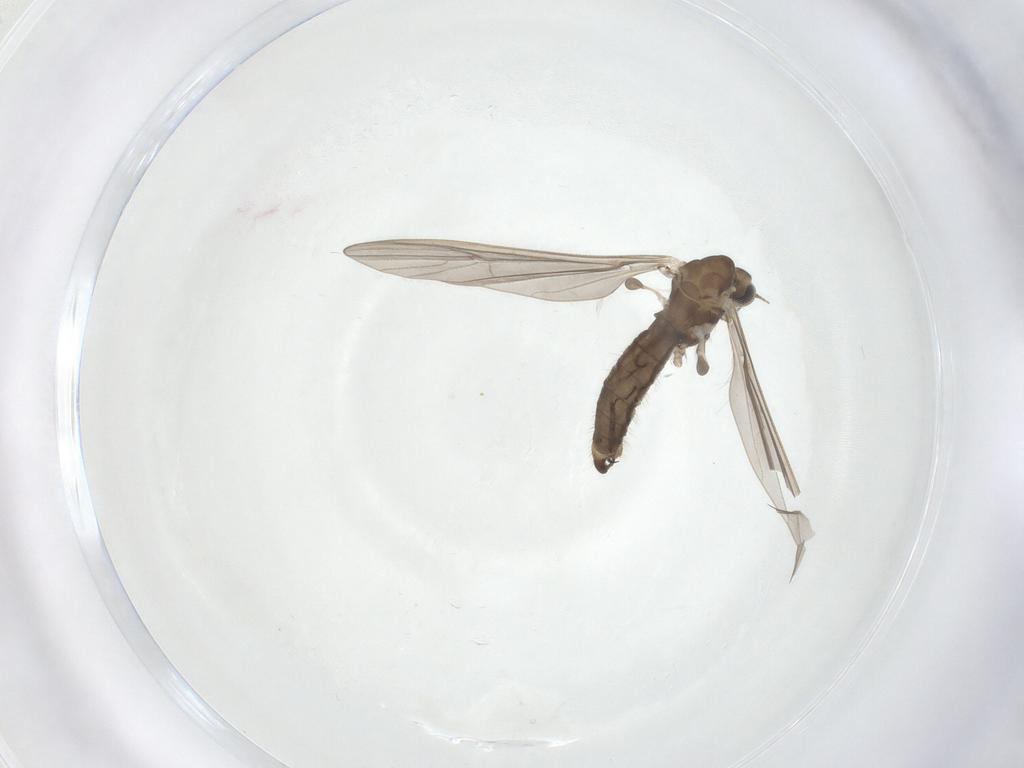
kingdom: Animalia
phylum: Arthropoda
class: Insecta
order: Diptera
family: Limoniidae
